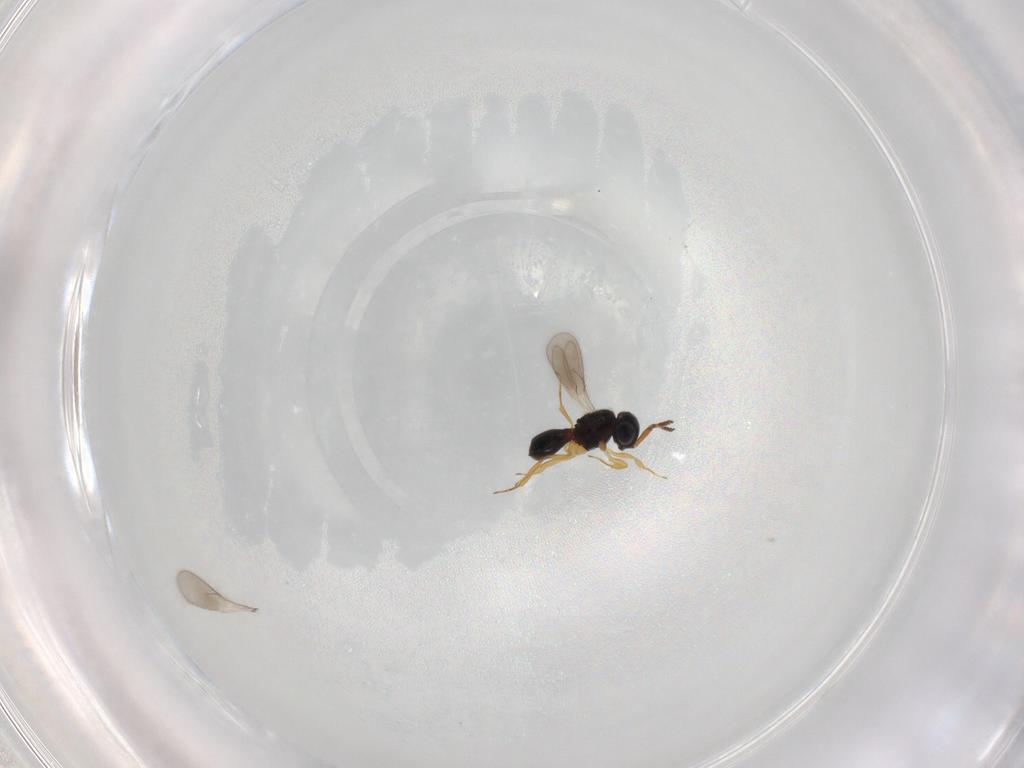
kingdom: Animalia
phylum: Arthropoda
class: Insecta
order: Hymenoptera
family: Scelionidae
